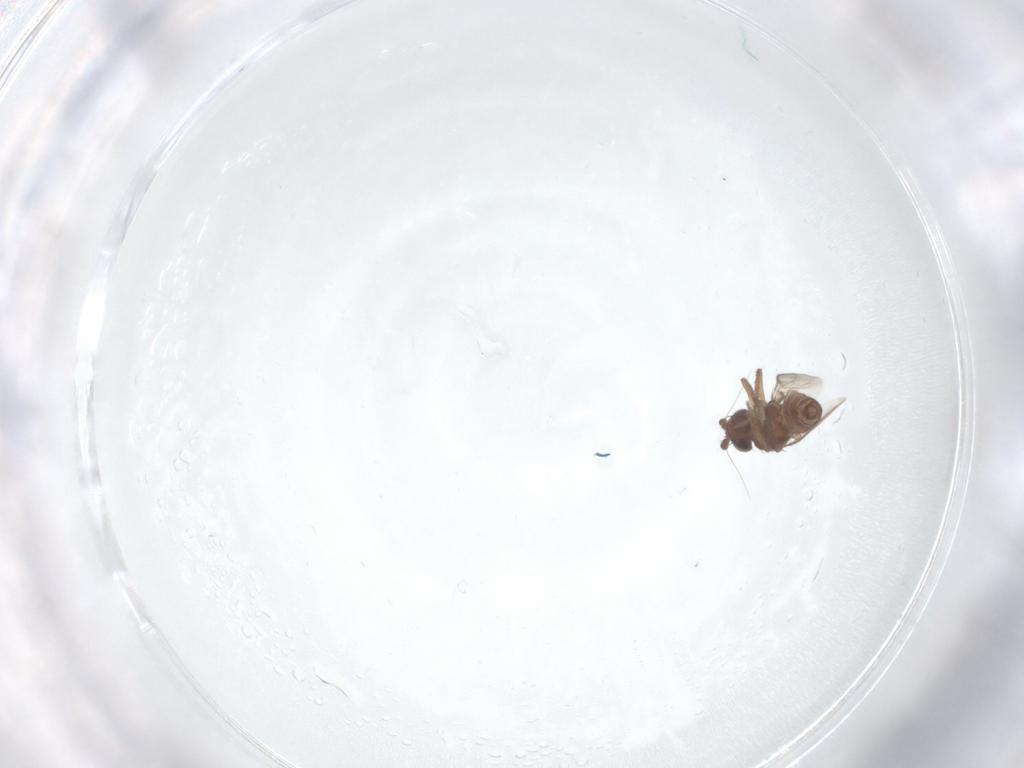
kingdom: Animalia
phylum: Arthropoda
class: Insecta
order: Diptera
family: Sphaeroceridae
